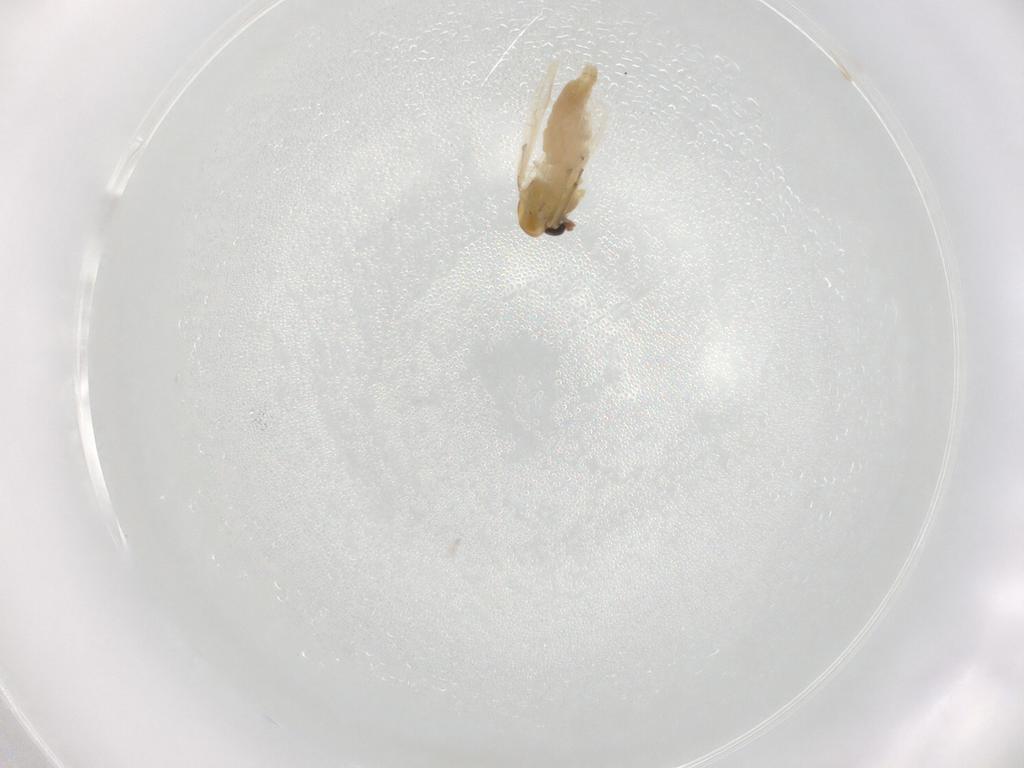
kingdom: Animalia
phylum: Arthropoda
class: Insecta
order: Diptera
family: Chironomidae
